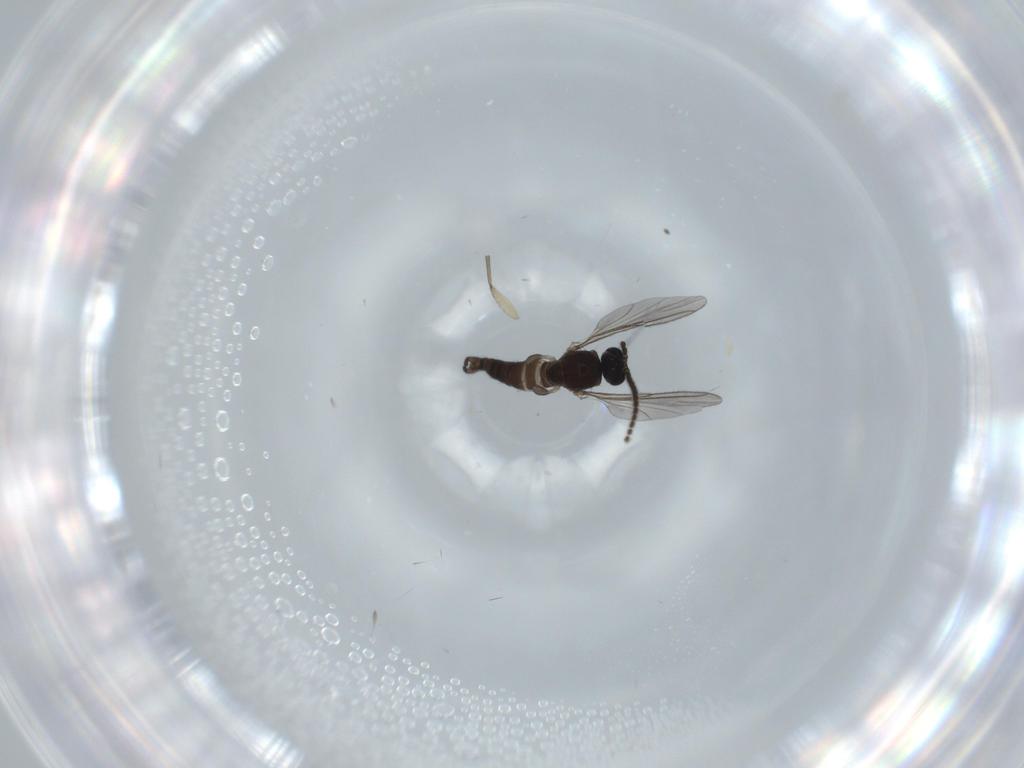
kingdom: Animalia
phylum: Arthropoda
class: Insecta
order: Diptera
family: Sciaridae
